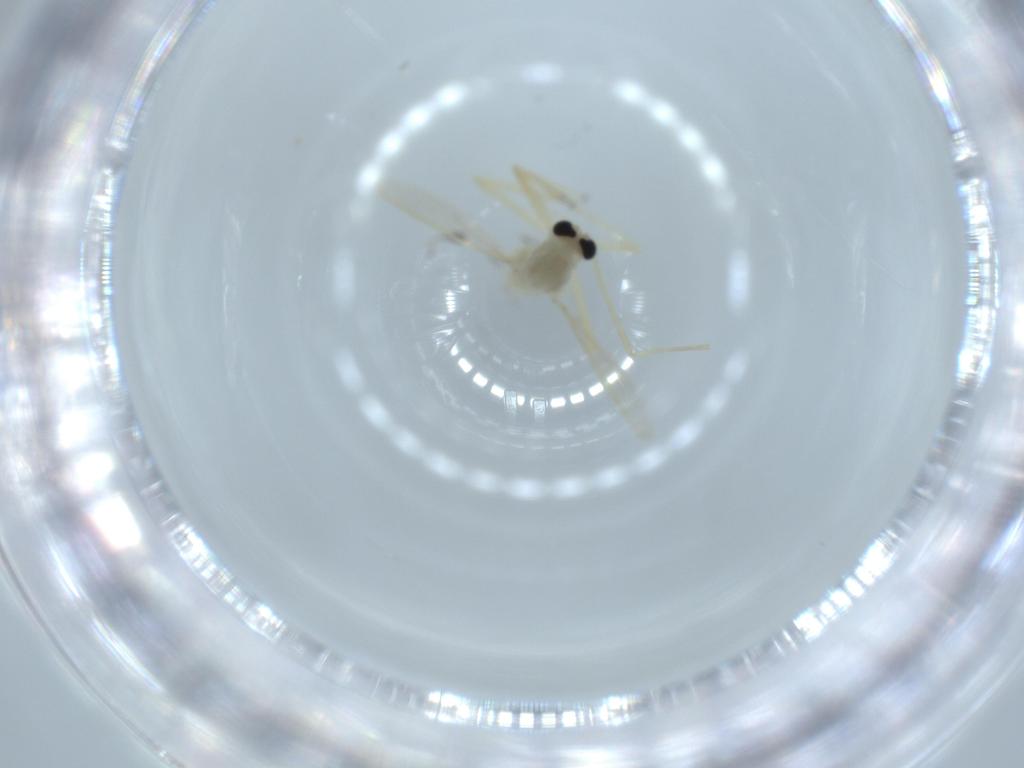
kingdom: Animalia
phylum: Arthropoda
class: Insecta
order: Diptera
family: Chironomidae
